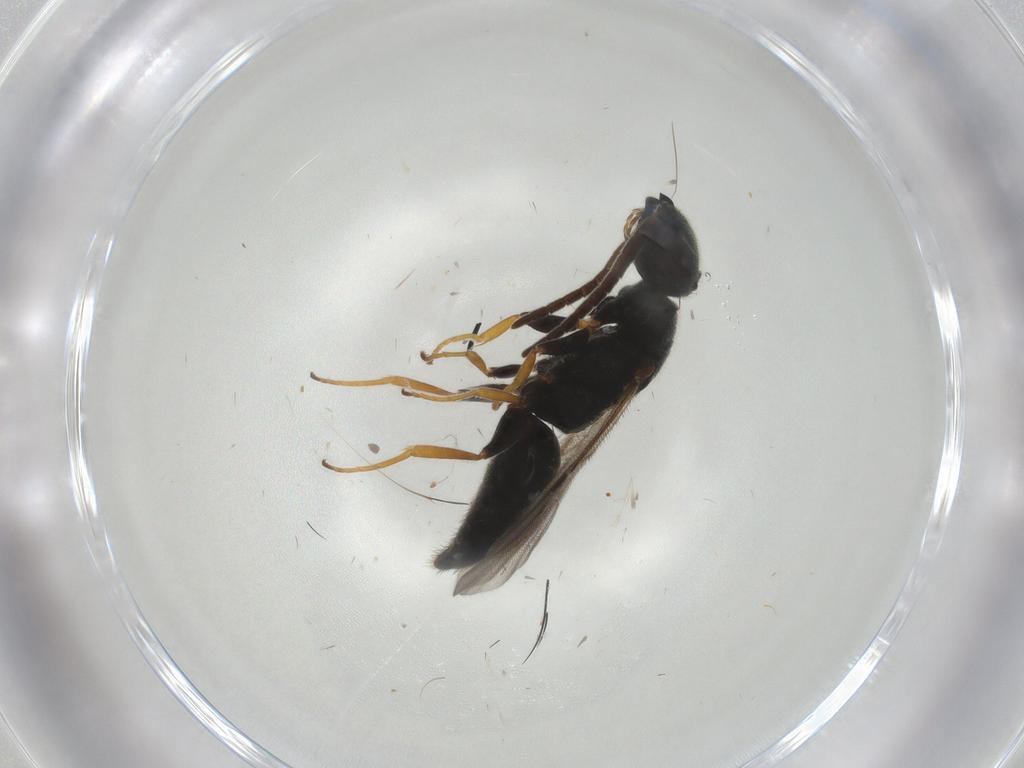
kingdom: Animalia
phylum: Arthropoda
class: Insecta
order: Hymenoptera
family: Bethylidae
